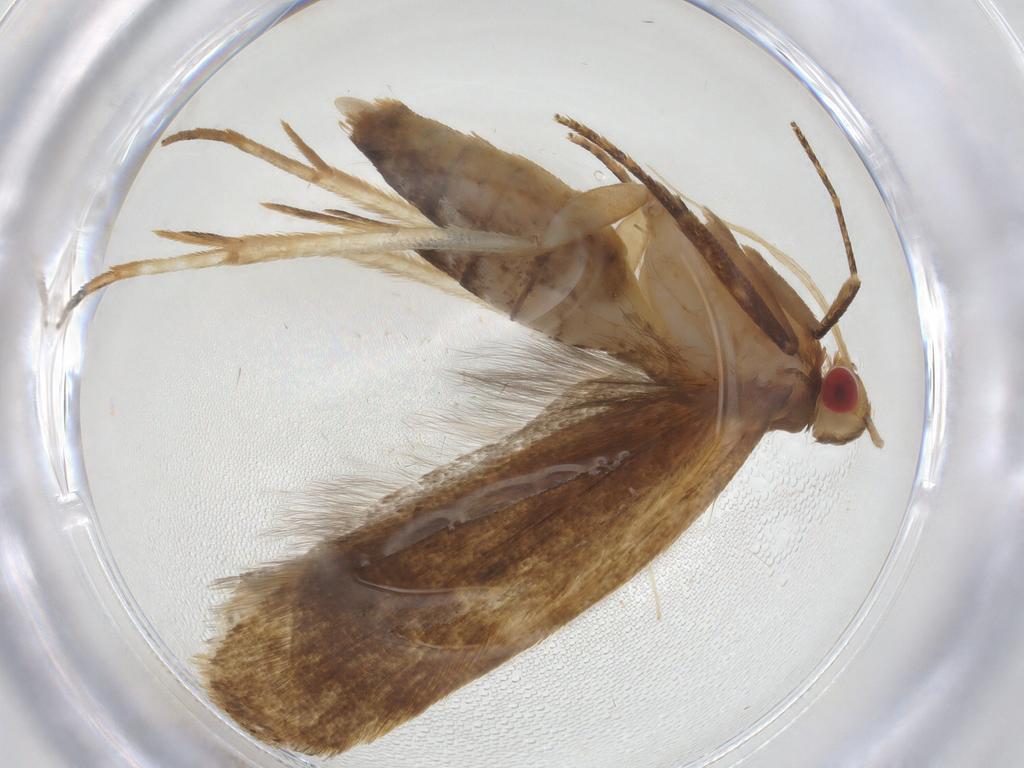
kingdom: Animalia
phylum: Arthropoda
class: Insecta
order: Lepidoptera
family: Depressariidae
